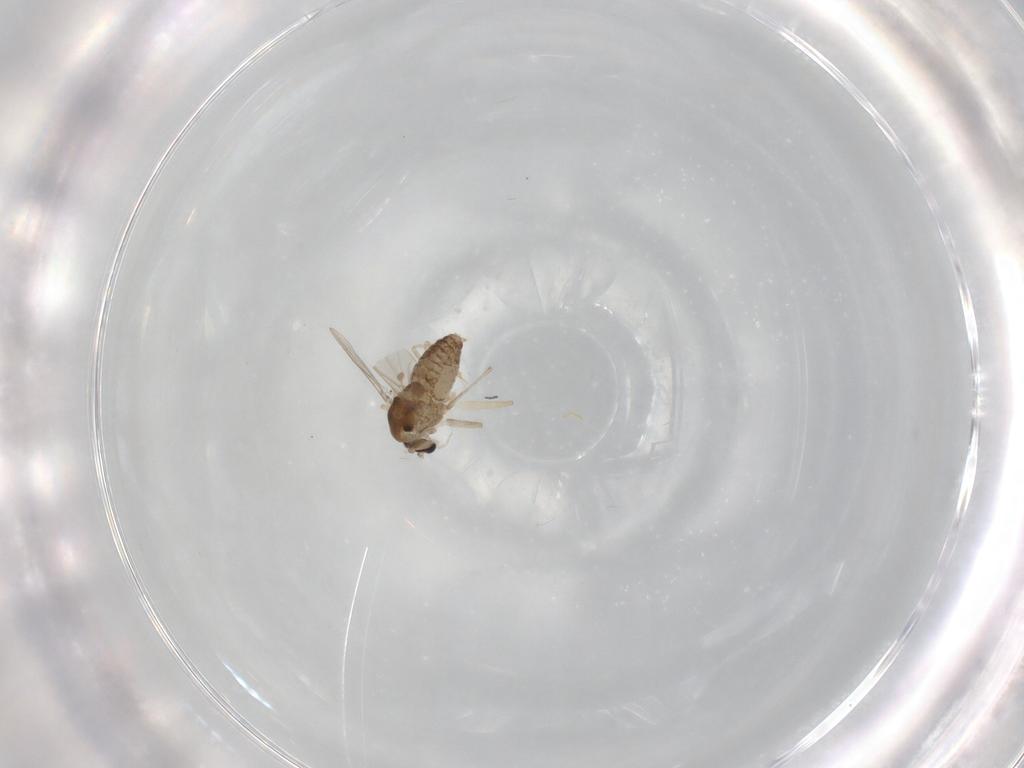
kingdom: Animalia
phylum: Arthropoda
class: Insecta
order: Diptera
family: Chironomidae
